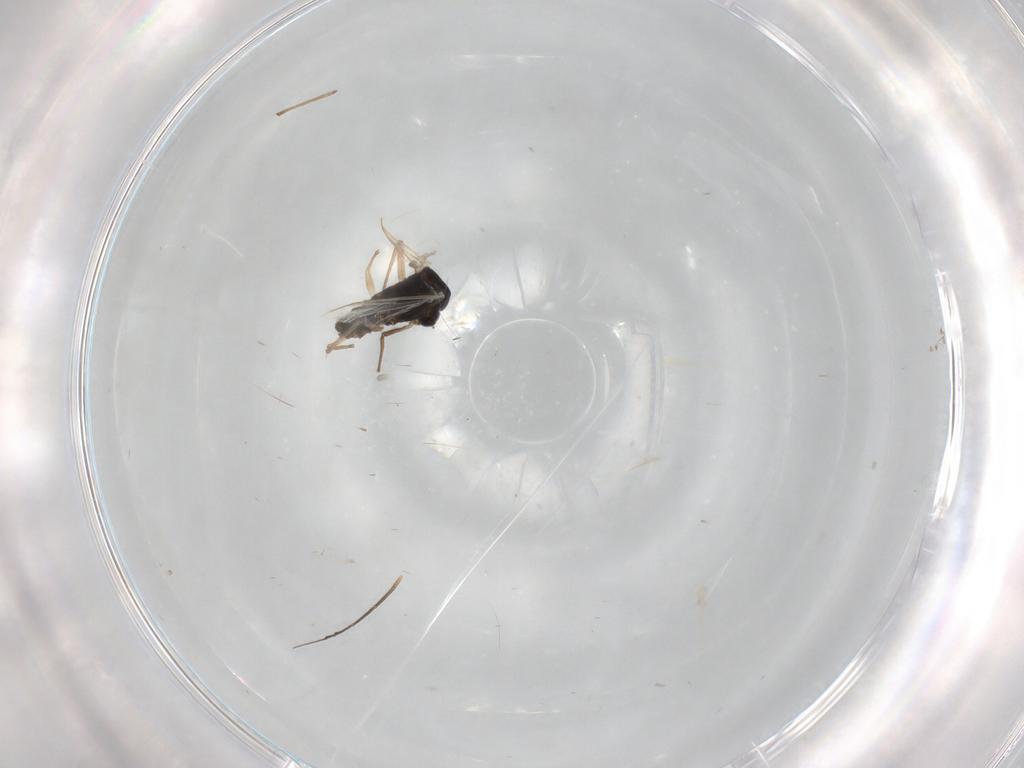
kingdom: Animalia
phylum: Arthropoda
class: Insecta
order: Diptera
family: Chironomidae
